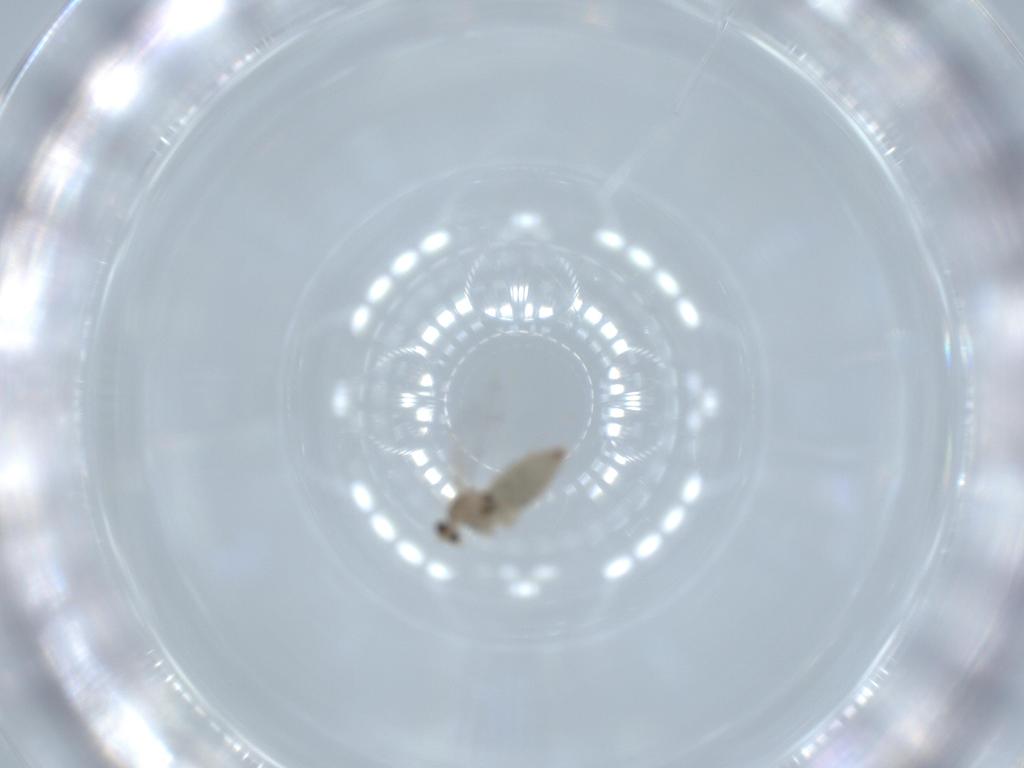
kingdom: Animalia
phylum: Arthropoda
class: Insecta
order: Diptera
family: Cecidomyiidae
